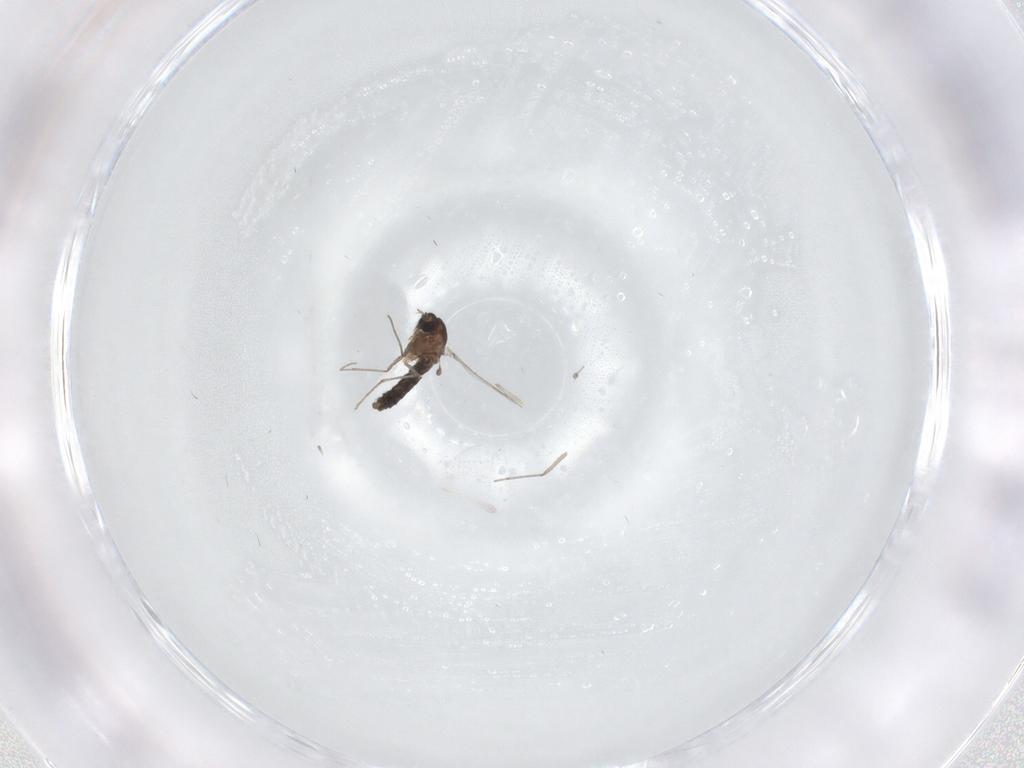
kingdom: Animalia
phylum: Arthropoda
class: Insecta
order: Diptera
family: Chironomidae
